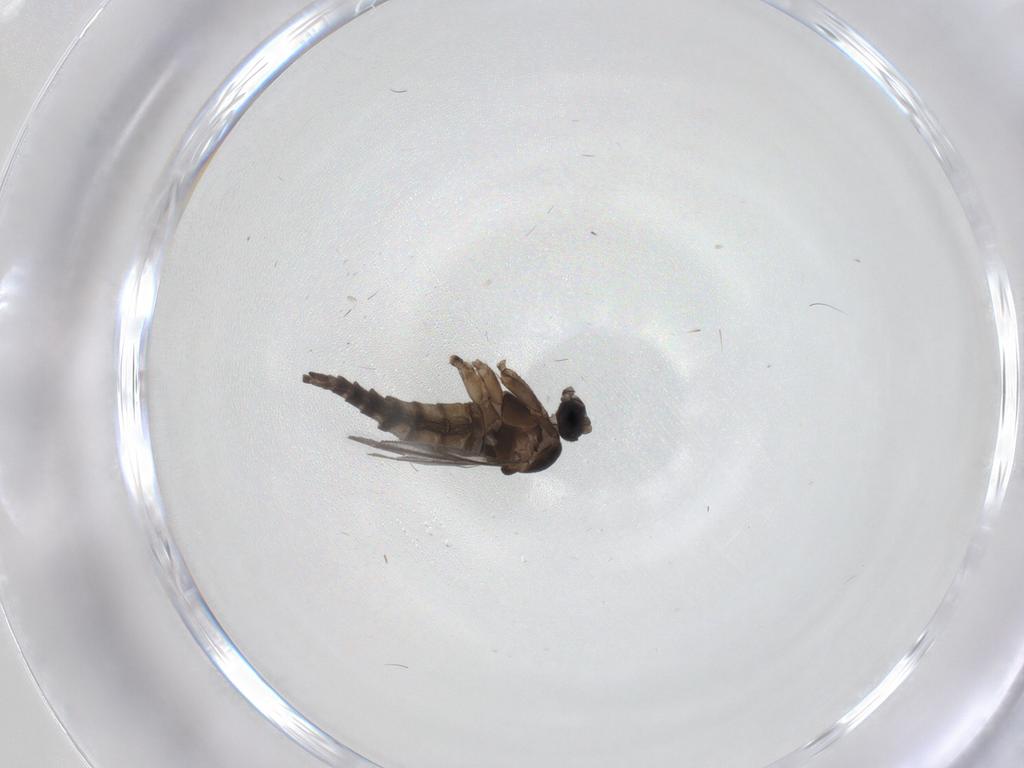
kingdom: Animalia
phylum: Arthropoda
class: Insecta
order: Diptera
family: Sciaridae
